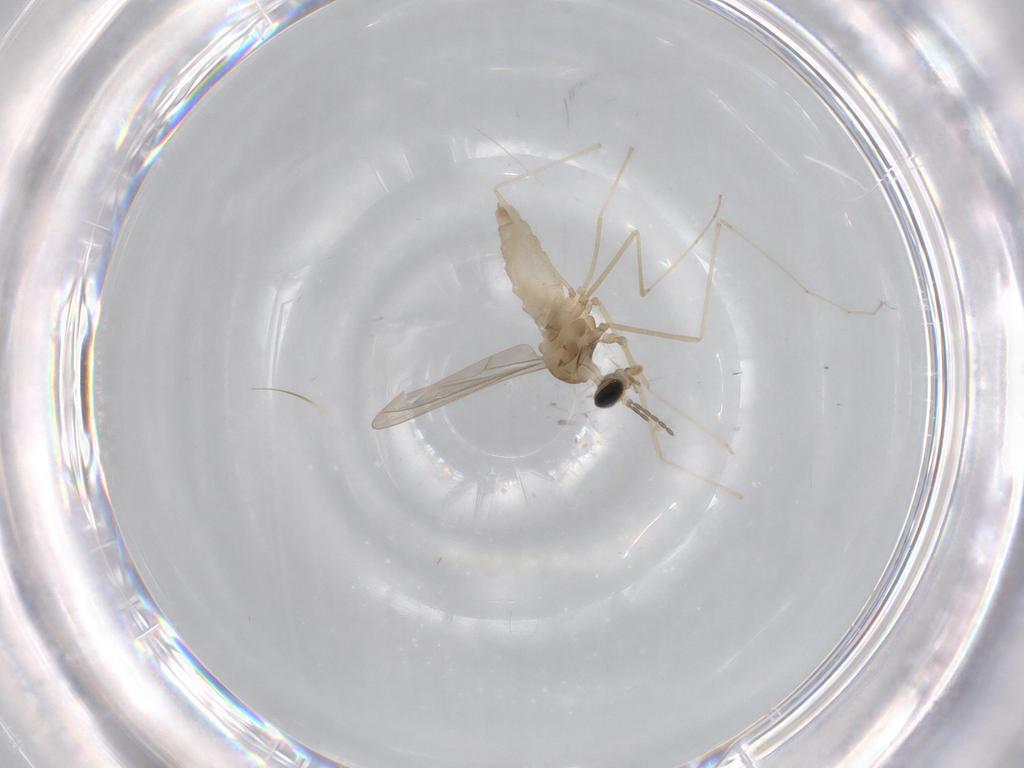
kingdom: Animalia
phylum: Arthropoda
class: Insecta
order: Diptera
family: Cecidomyiidae
